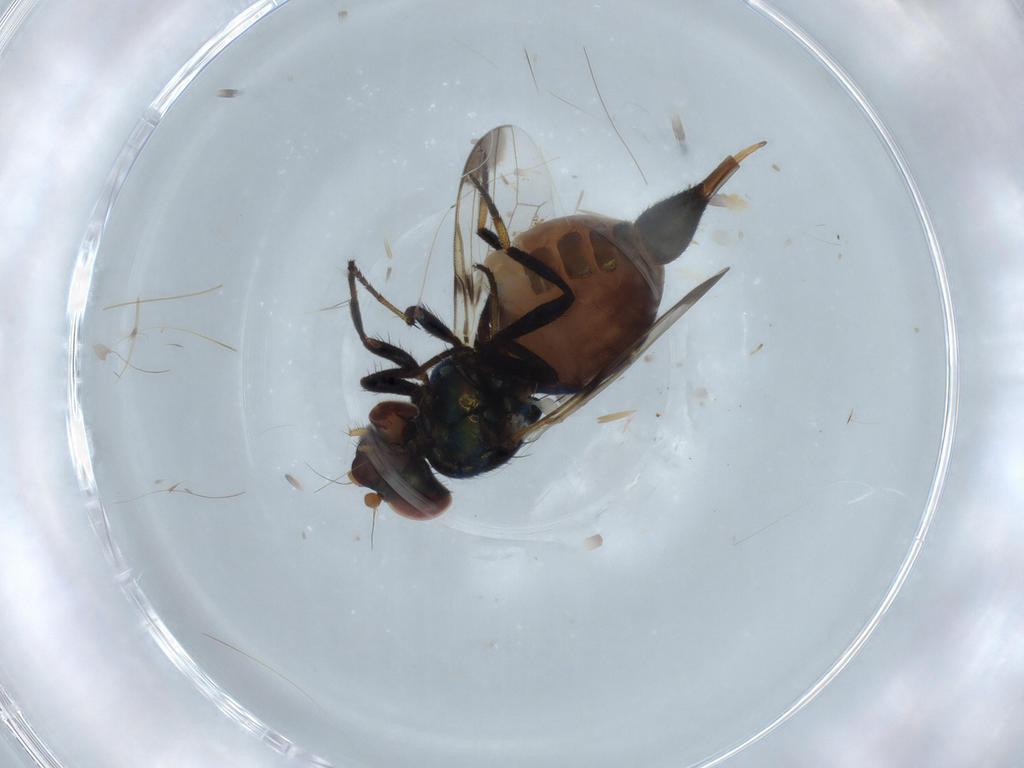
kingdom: Animalia
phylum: Arthropoda
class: Insecta
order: Diptera
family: Ulidiidae
